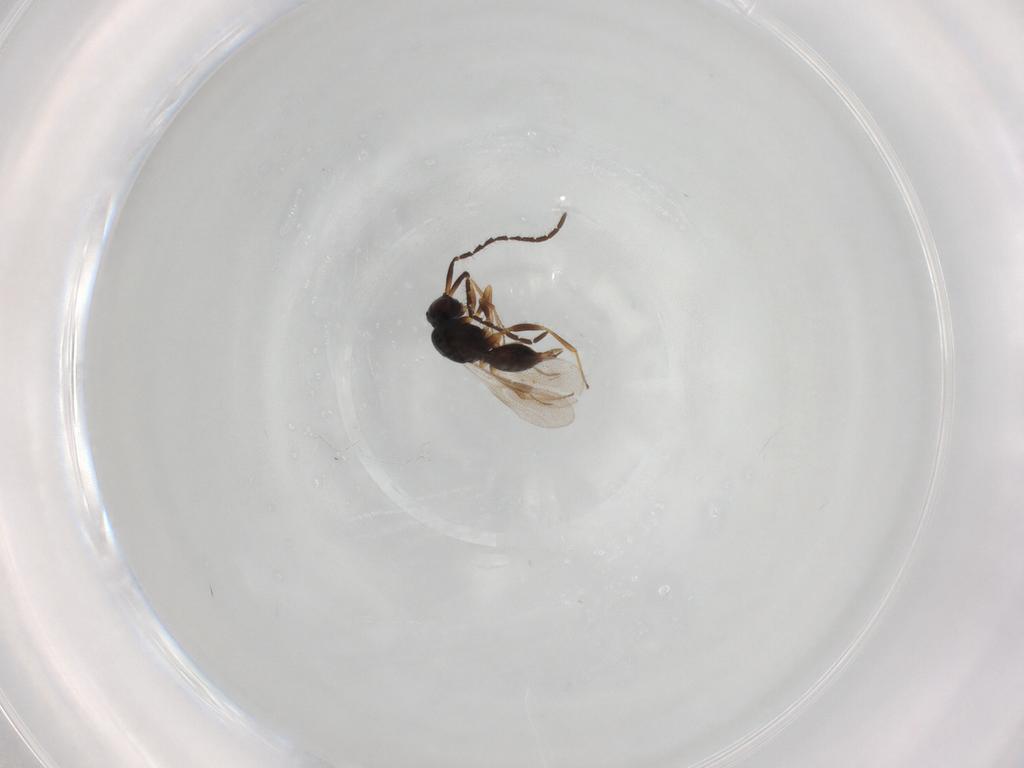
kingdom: Animalia
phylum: Arthropoda
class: Insecta
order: Hymenoptera
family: Megaspilidae
